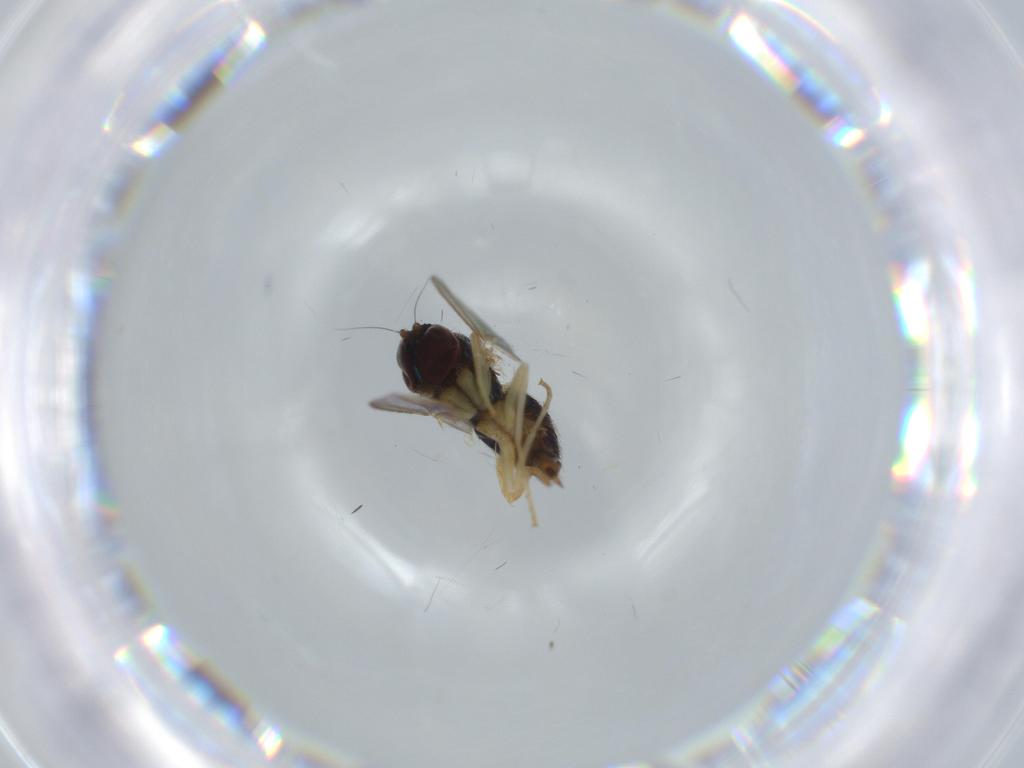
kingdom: Animalia
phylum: Arthropoda
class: Insecta
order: Diptera
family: Dolichopodidae
